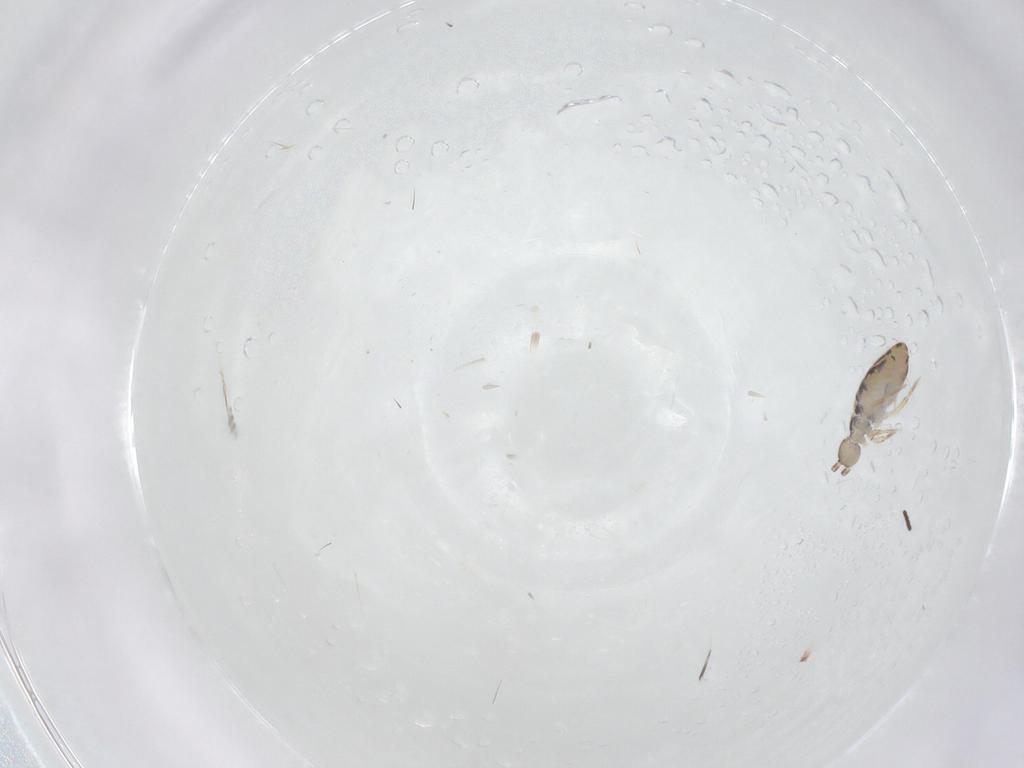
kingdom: Animalia
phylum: Arthropoda
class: Collembola
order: Entomobryomorpha
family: Entomobryidae
